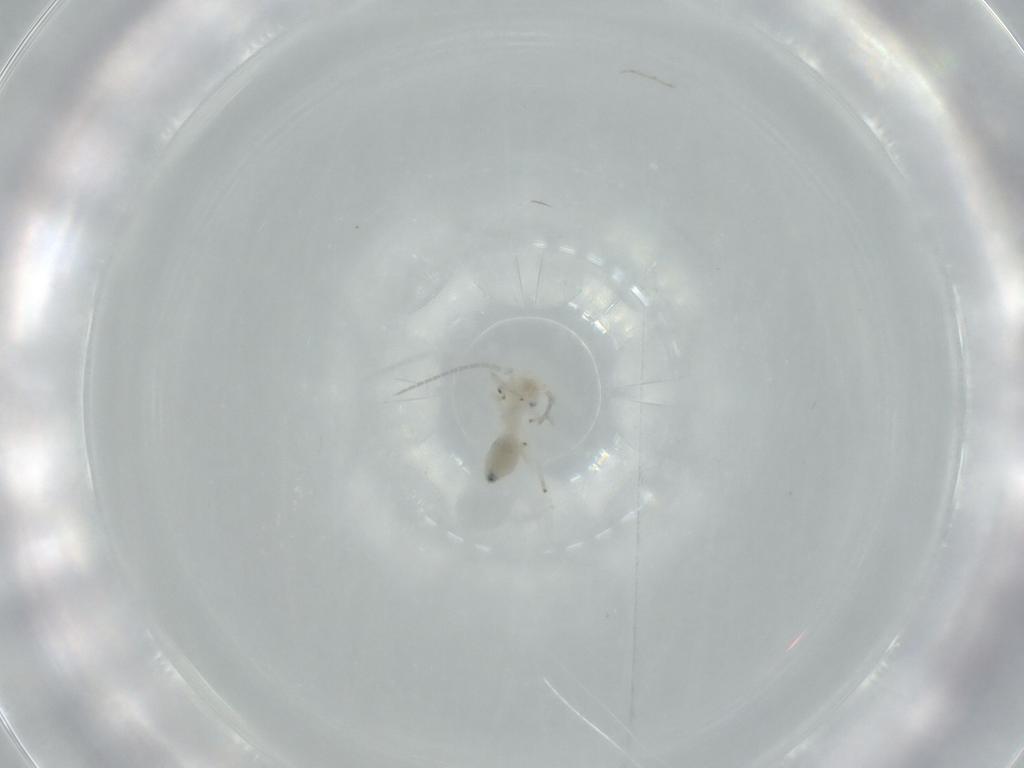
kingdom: Animalia
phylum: Arthropoda
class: Insecta
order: Psocodea
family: Caeciliusidae
